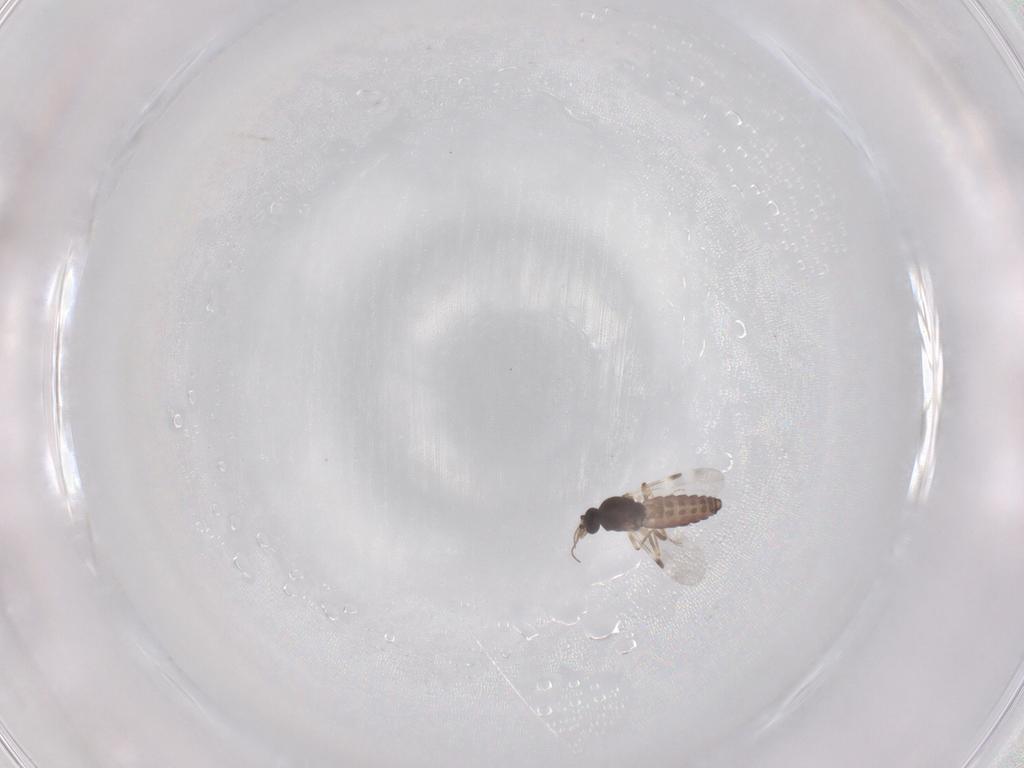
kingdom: Animalia
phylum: Arthropoda
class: Insecta
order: Diptera
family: Dolichopodidae
